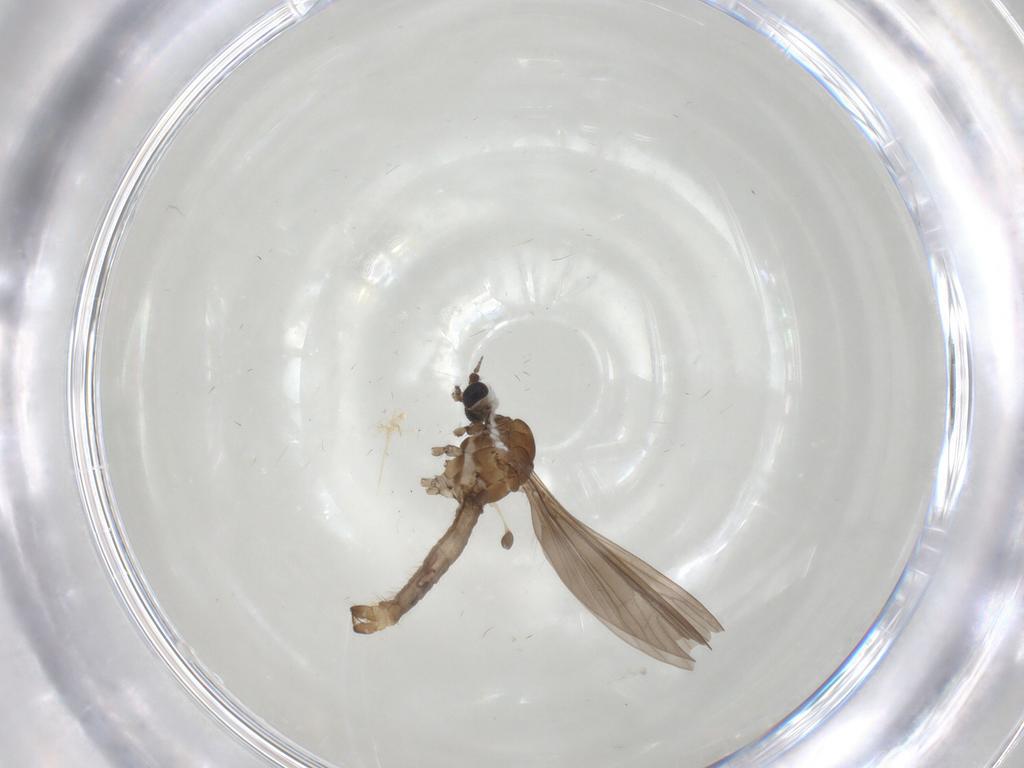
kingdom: Animalia
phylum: Arthropoda
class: Insecta
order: Diptera
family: Limoniidae
